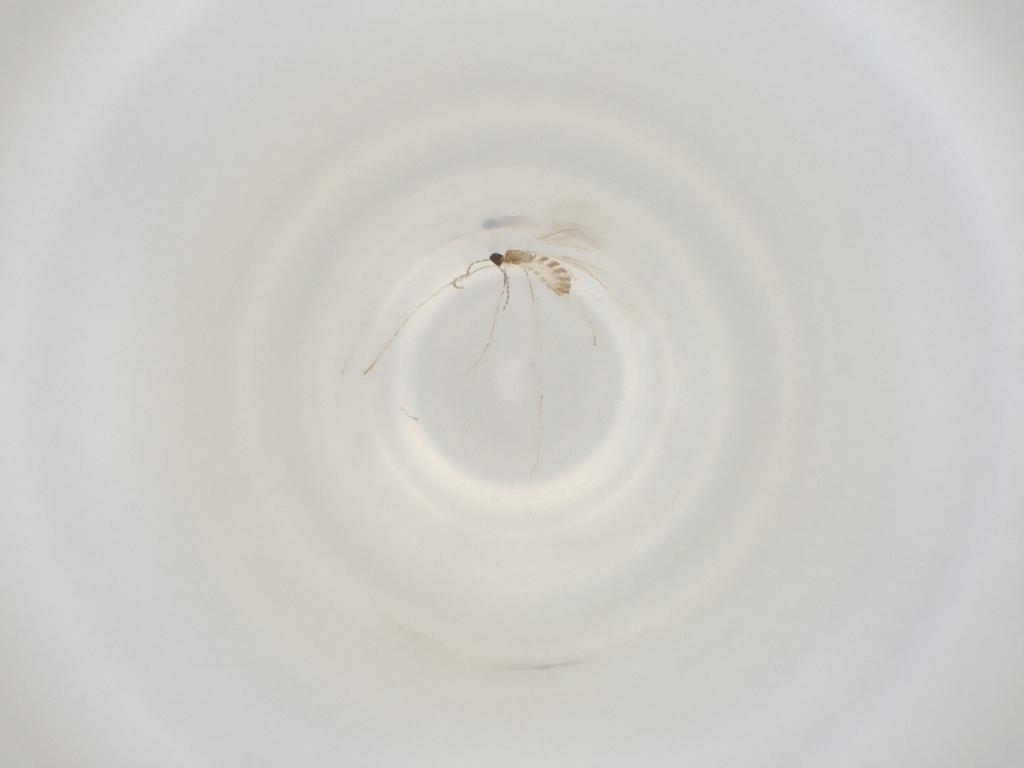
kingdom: Animalia
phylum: Arthropoda
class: Insecta
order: Diptera
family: Cecidomyiidae
